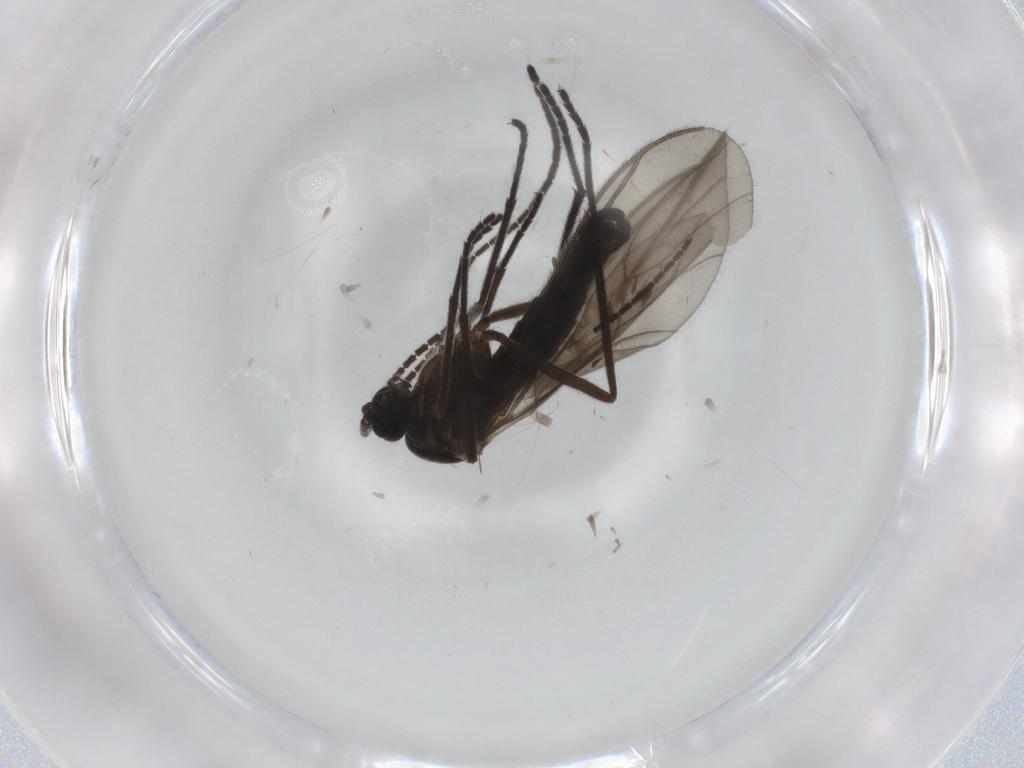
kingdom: Animalia
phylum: Arthropoda
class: Insecta
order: Diptera
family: Sciaridae
